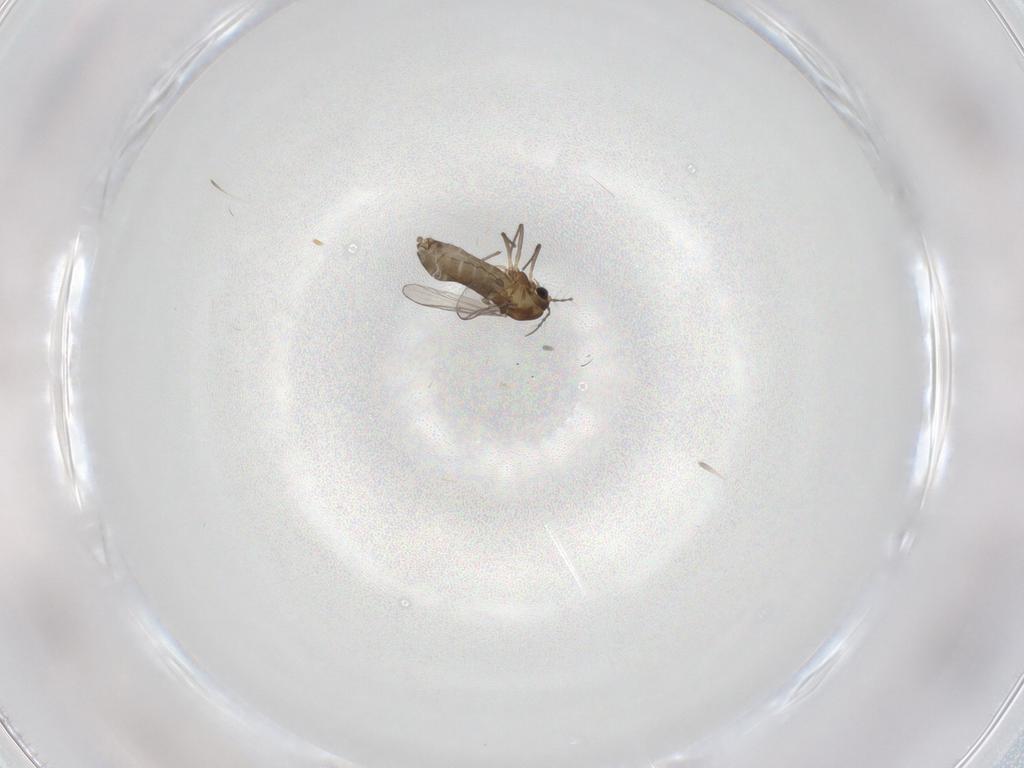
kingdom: Animalia
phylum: Arthropoda
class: Insecta
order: Diptera
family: Chironomidae
